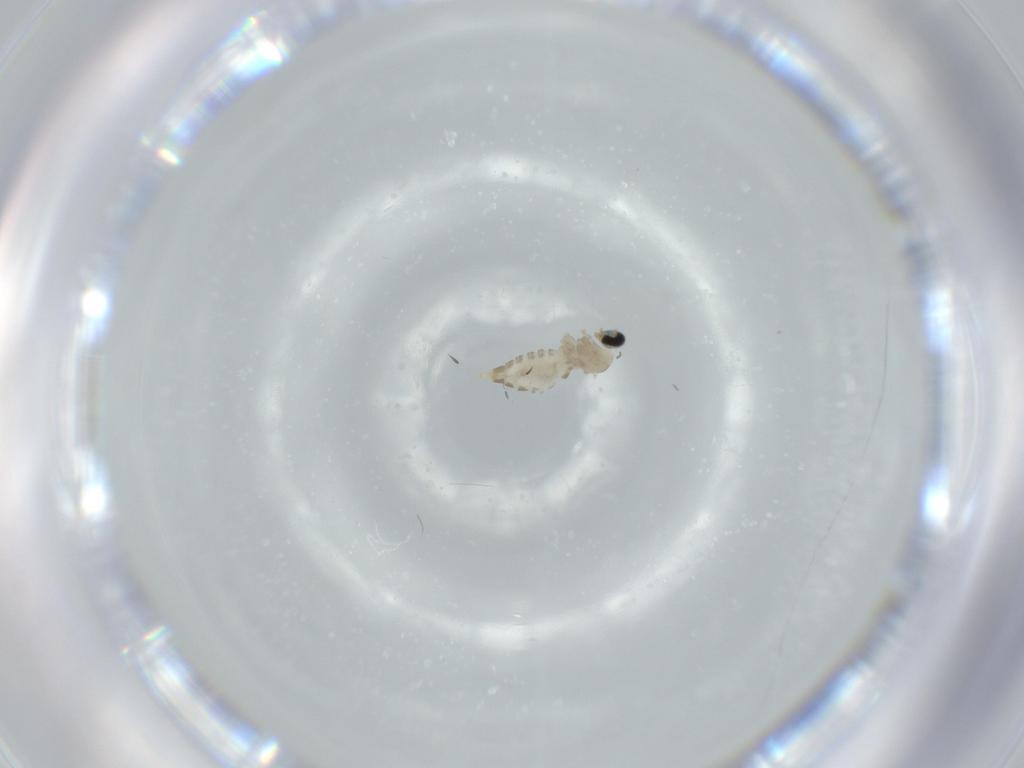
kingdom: Animalia
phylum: Arthropoda
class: Insecta
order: Diptera
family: Cecidomyiidae
